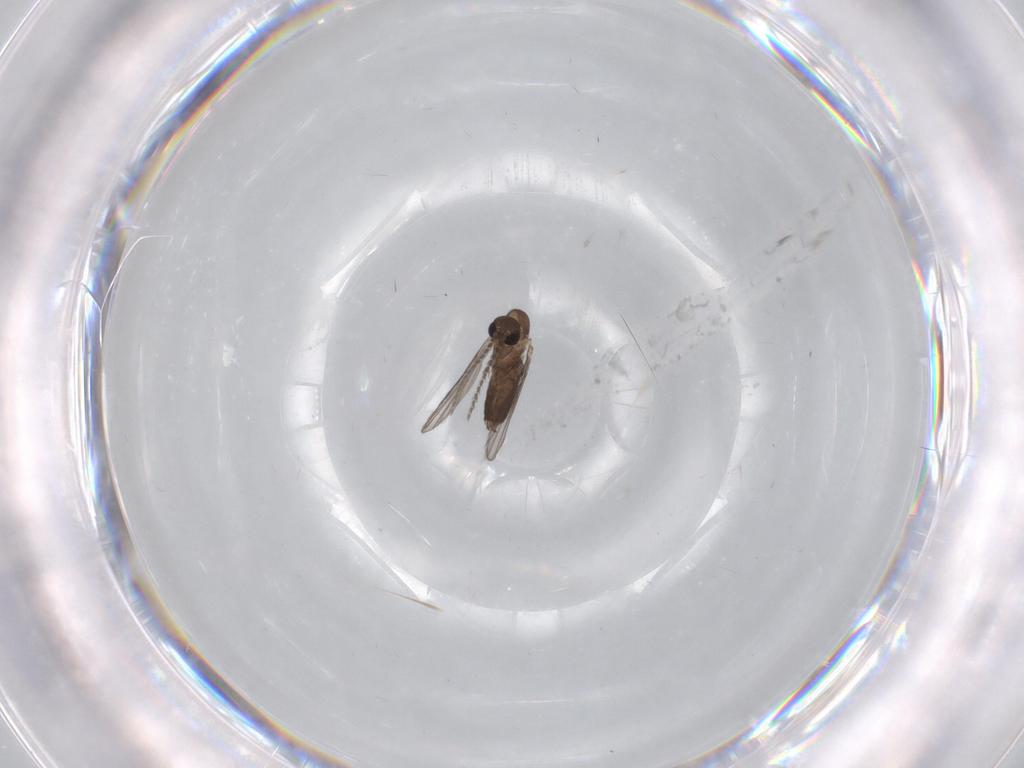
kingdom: Animalia
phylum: Arthropoda
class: Insecta
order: Diptera
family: Cecidomyiidae
